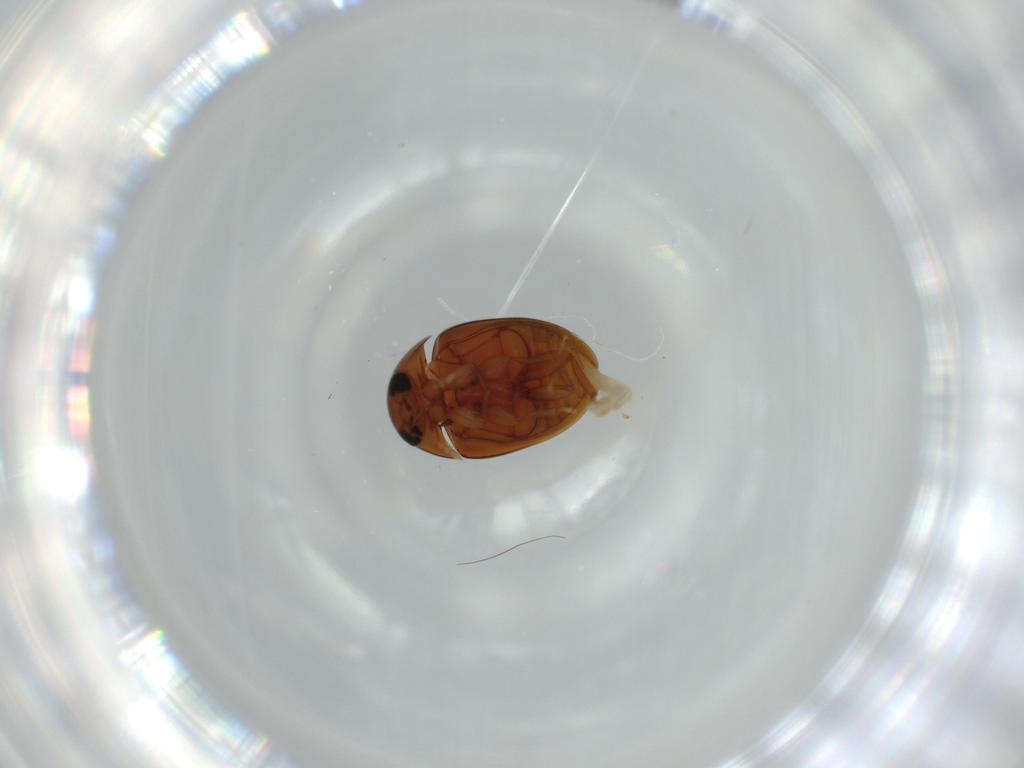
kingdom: Animalia
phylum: Arthropoda
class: Insecta
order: Coleoptera
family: Phalacridae
